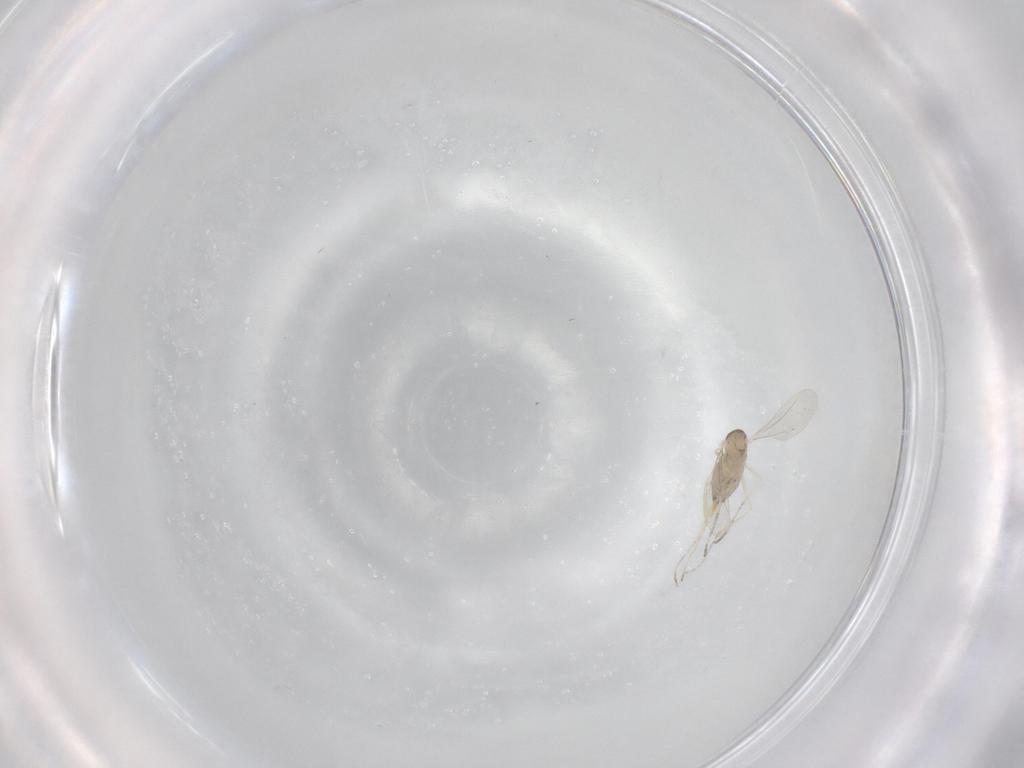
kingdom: Animalia
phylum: Arthropoda
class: Insecta
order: Diptera
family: Cecidomyiidae
